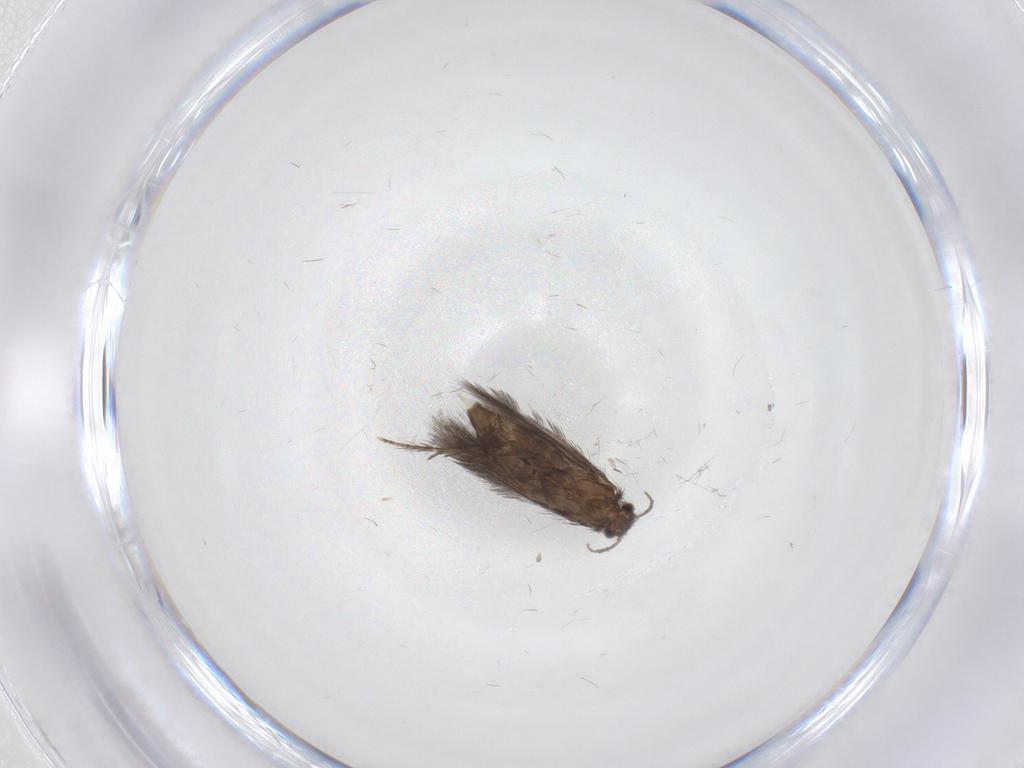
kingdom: Animalia
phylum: Arthropoda
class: Insecta
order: Trichoptera
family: Hydroptilidae
